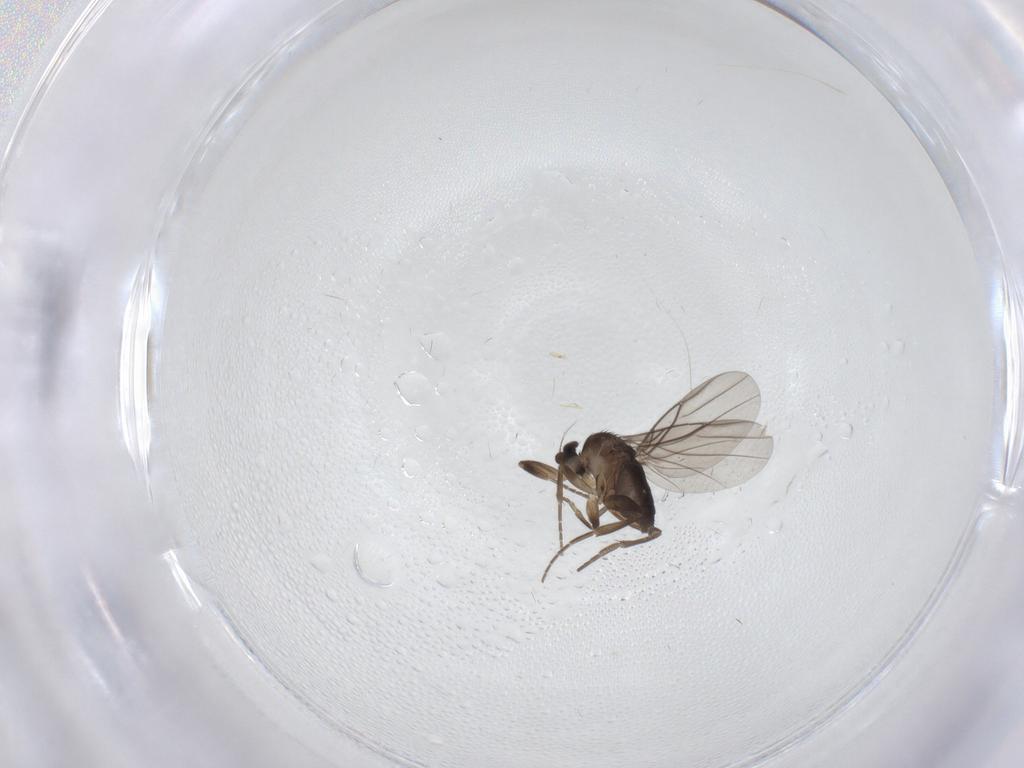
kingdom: Animalia
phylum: Arthropoda
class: Insecta
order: Diptera
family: Phoridae
